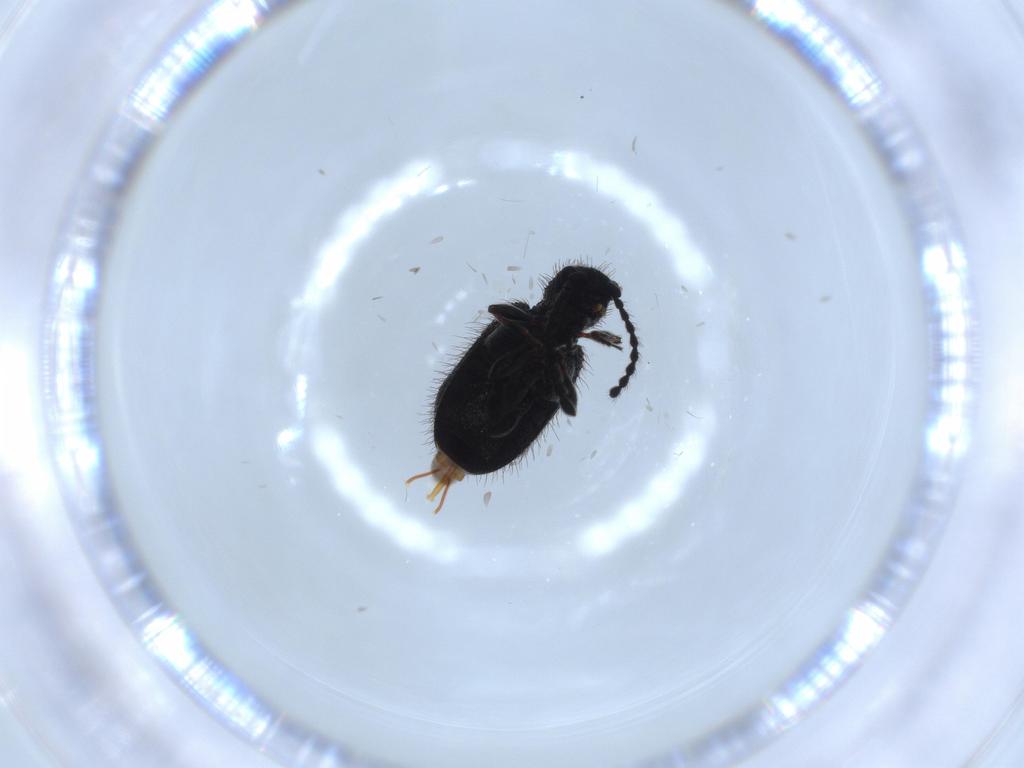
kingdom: Animalia
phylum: Arthropoda
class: Insecta
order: Coleoptera
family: Ptinidae
